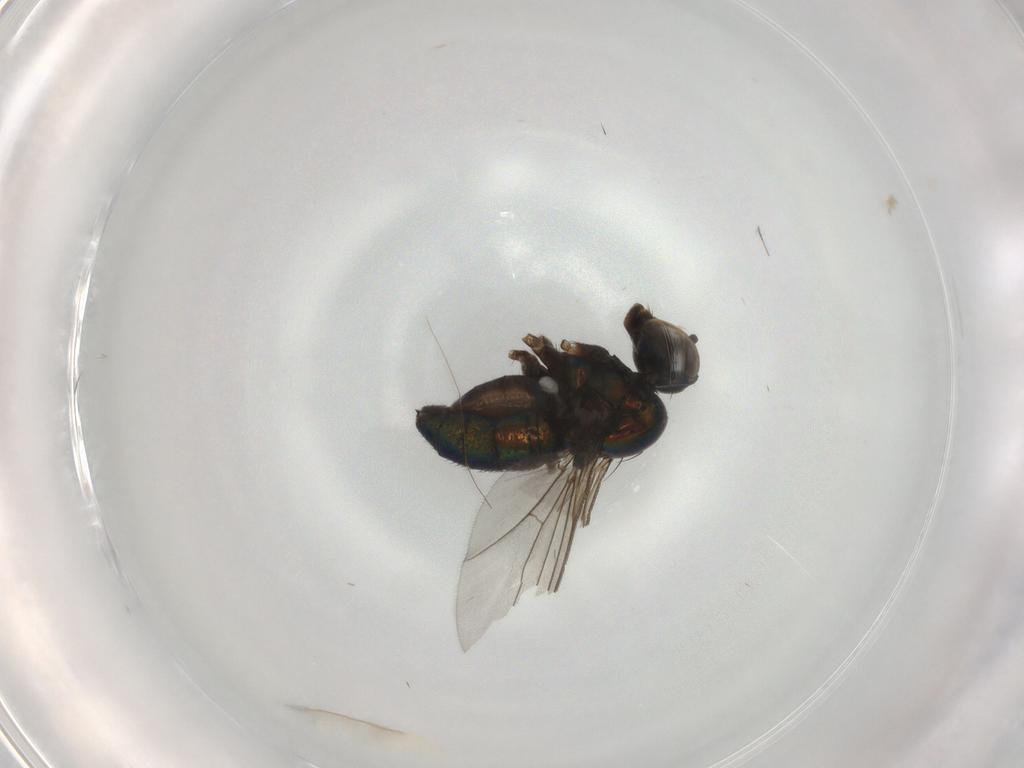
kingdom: Animalia
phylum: Arthropoda
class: Insecta
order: Diptera
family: Syrphidae
